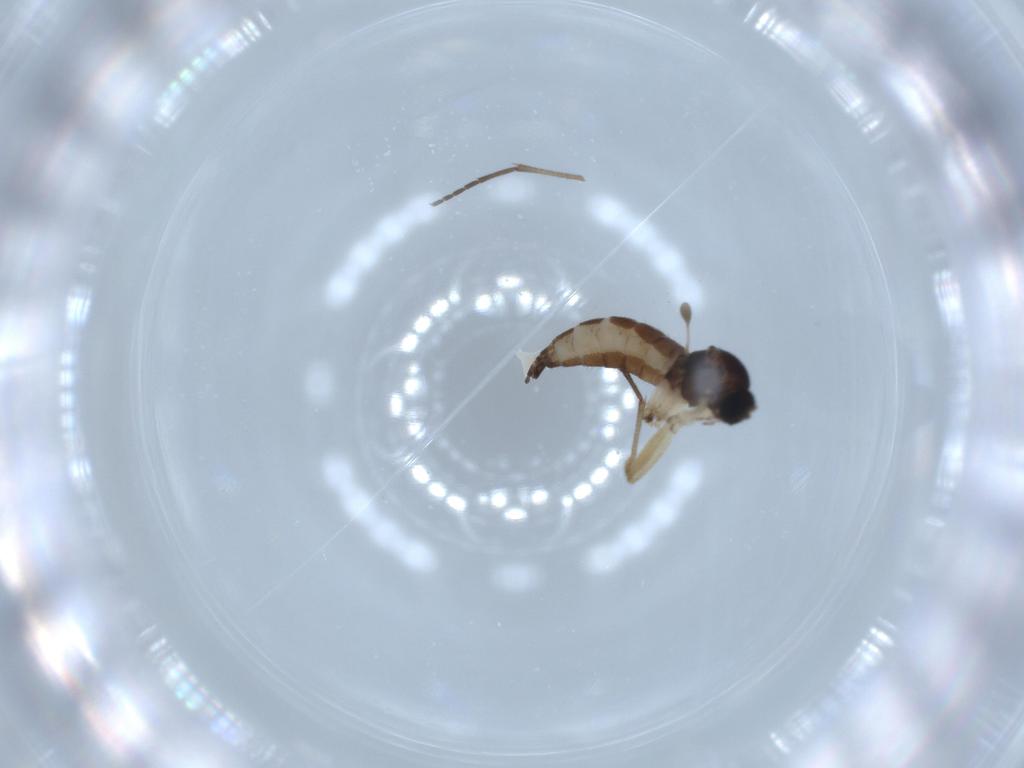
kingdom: Animalia
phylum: Arthropoda
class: Insecta
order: Diptera
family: Sciaridae
